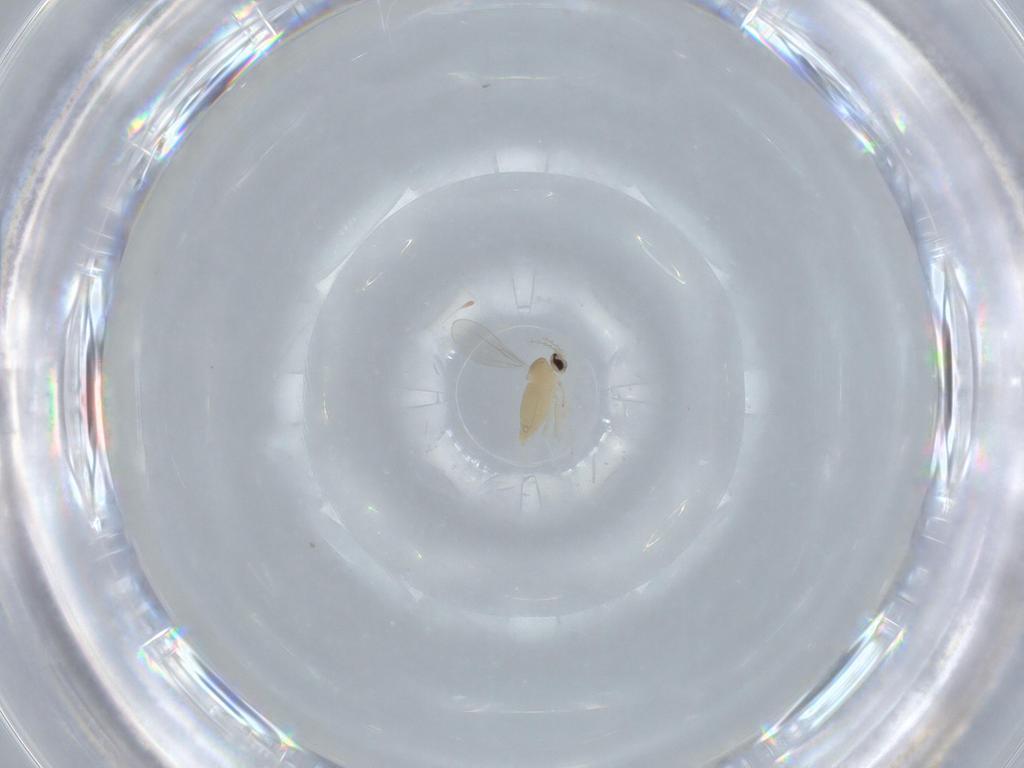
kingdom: Animalia
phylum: Arthropoda
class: Insecta
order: Diptera
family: Cecidomyiidae
